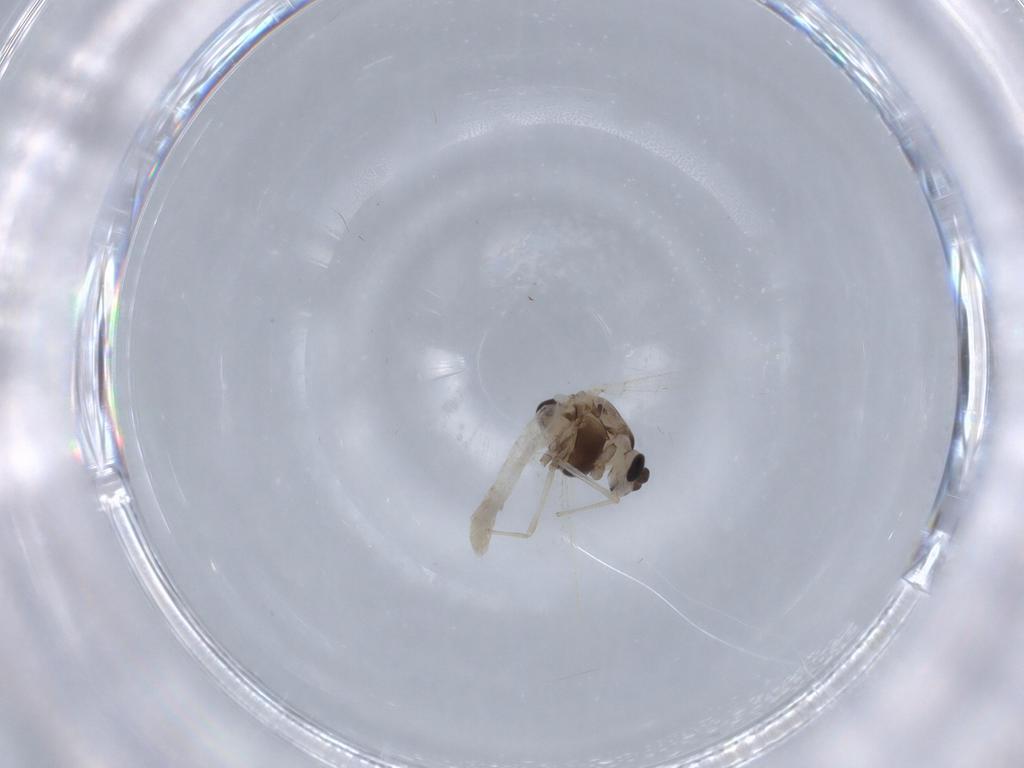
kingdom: Animalia
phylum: Arthropoda
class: Insecta
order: Diptera
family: Chironomidae
